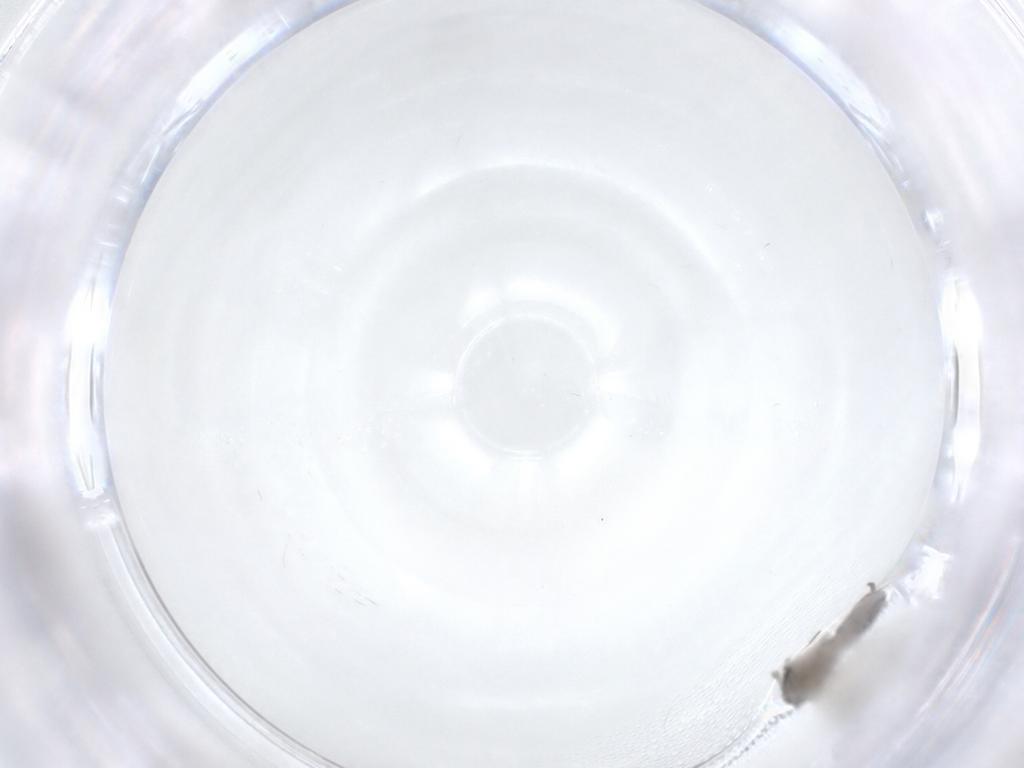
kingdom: Animalia
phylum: Arthropoda
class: Insecta
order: Diptera
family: Psychodidae
